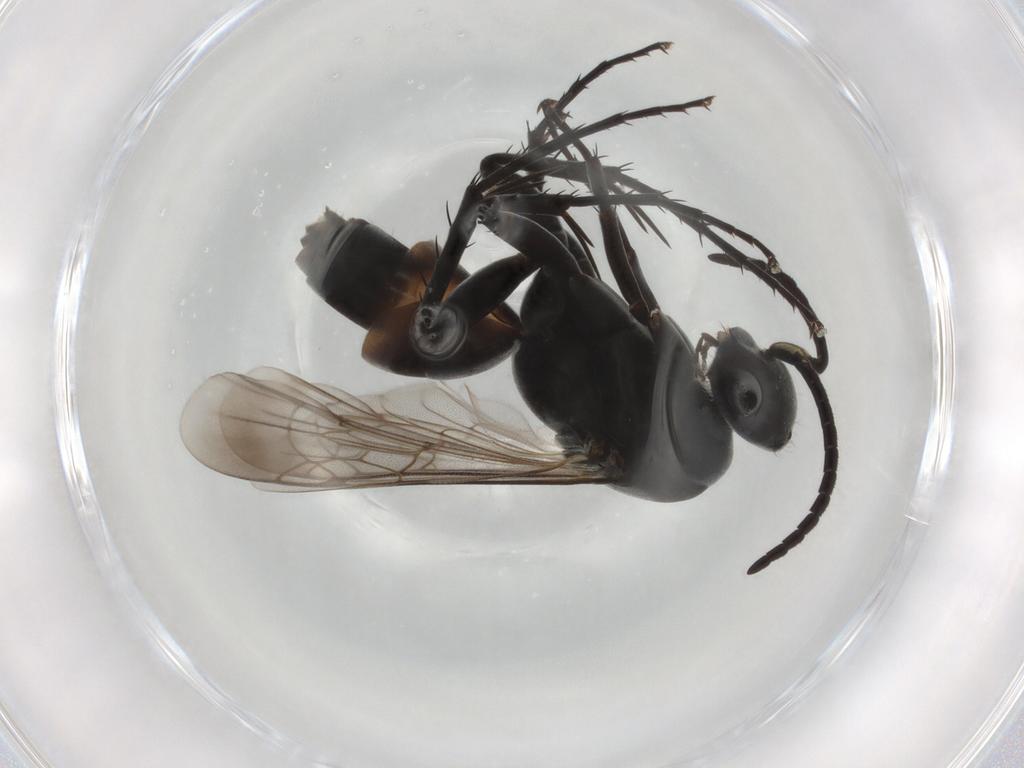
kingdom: Animalia
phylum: Arthropoda
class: Insecta
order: Hymenoptera
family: Pompilidae
